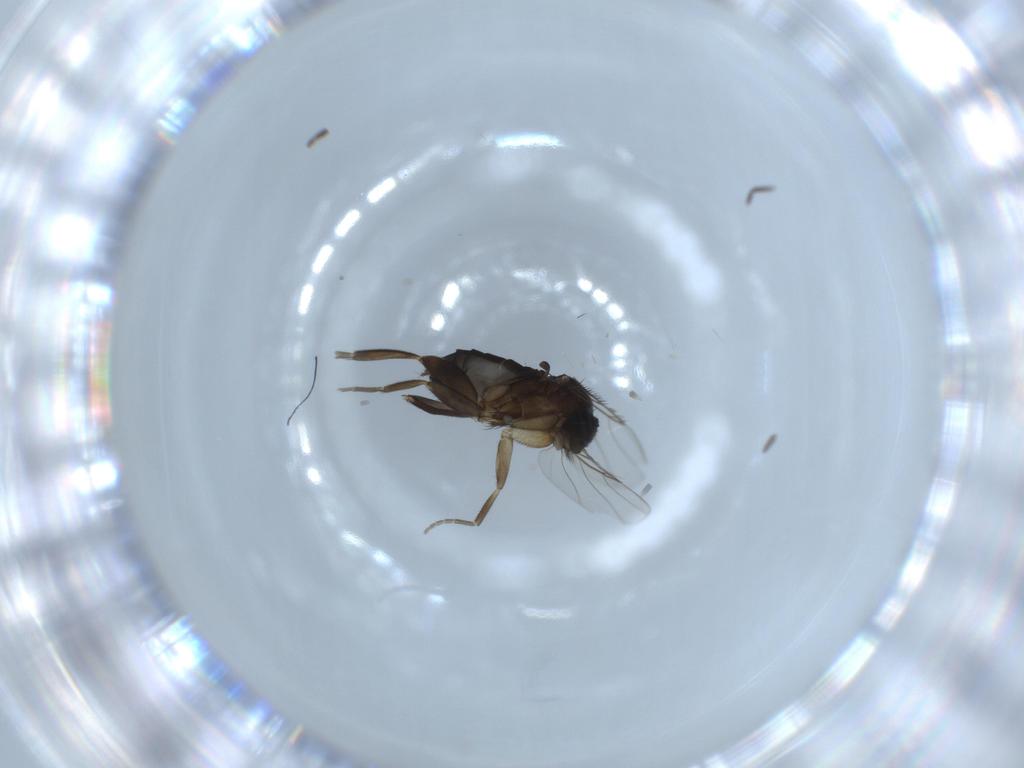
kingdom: Animalia
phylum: Arthropoda
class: Insecta
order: Diptera
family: Phoridae
